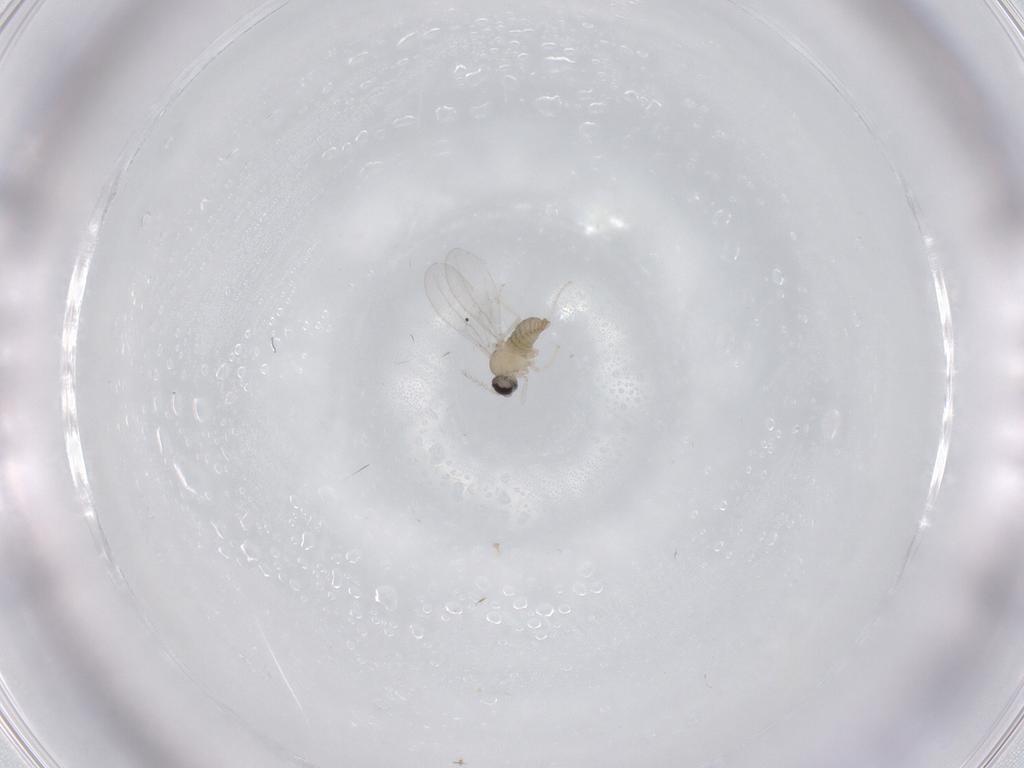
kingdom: Animalia
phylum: Arthropoda
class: Insecta
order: Diptera
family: Cecidomyiidae
